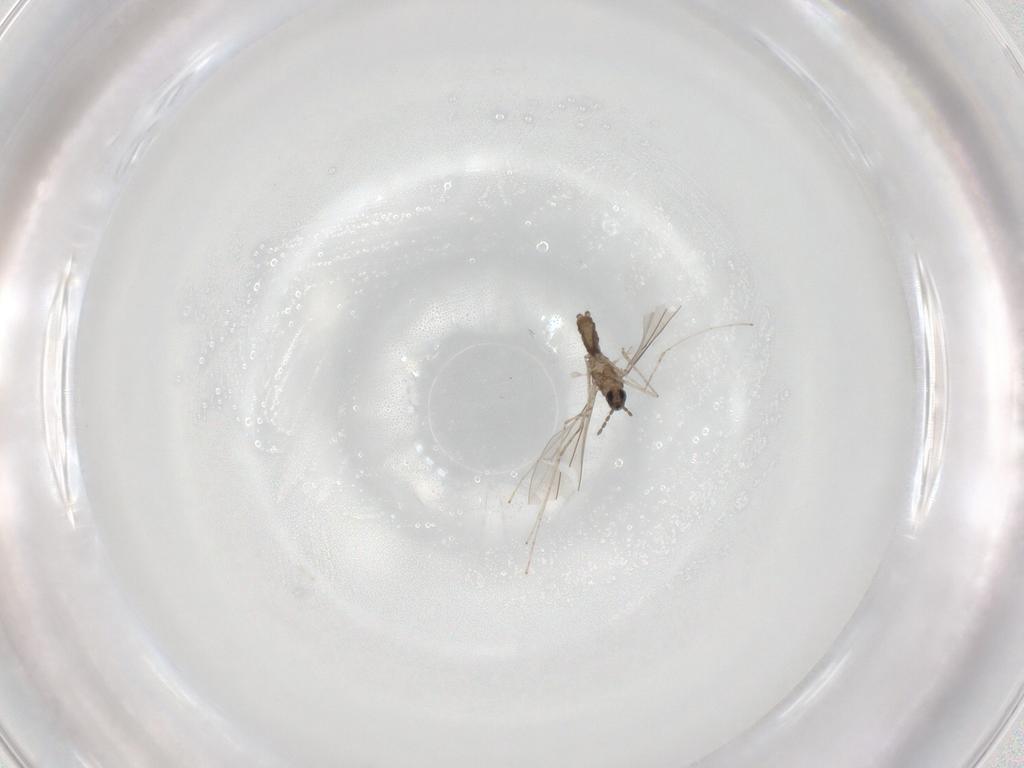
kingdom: Animalia
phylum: Arthropoda
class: Insecta
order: Diptera
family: Cecidomyiidae
